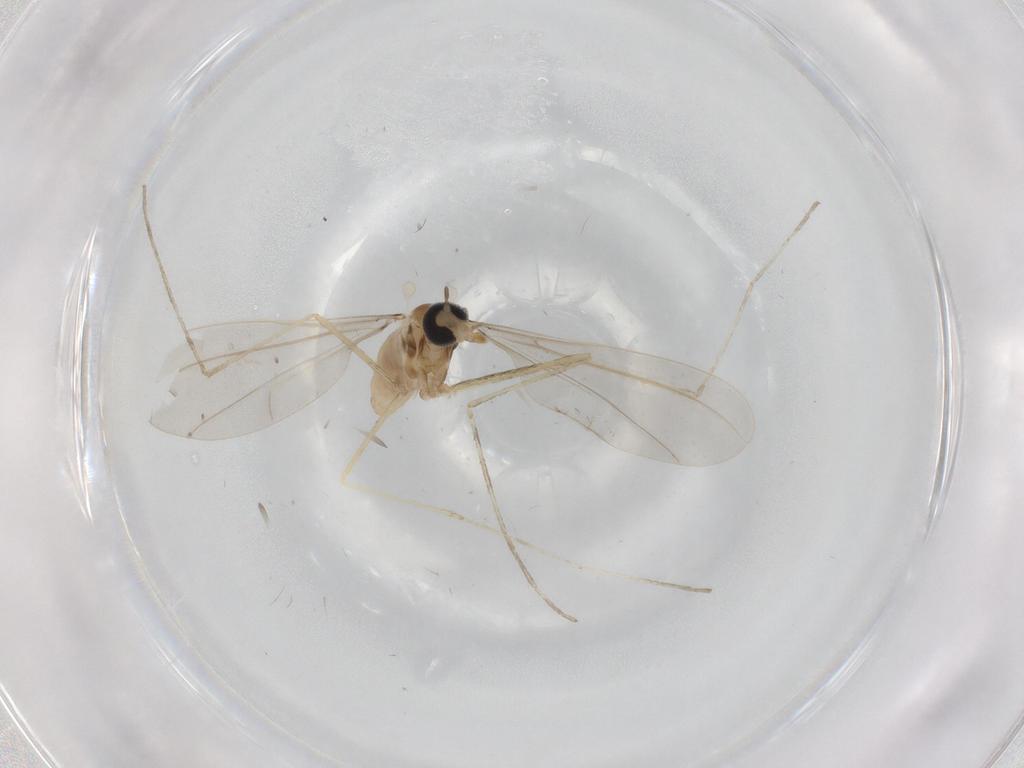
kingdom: Animalia
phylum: Arthropoda
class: Insecta
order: Diptera
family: Cecidomyiidae
